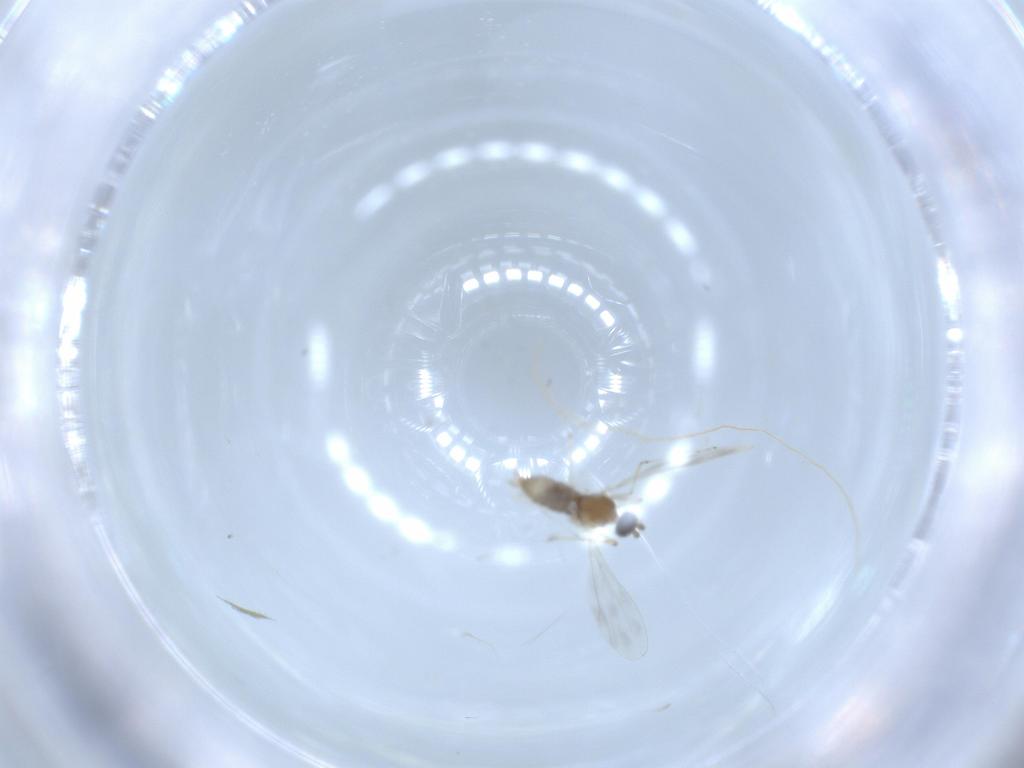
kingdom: Animalia
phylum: Arthropoda
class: Insecta
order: Diptera
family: Cecidomyiidae
